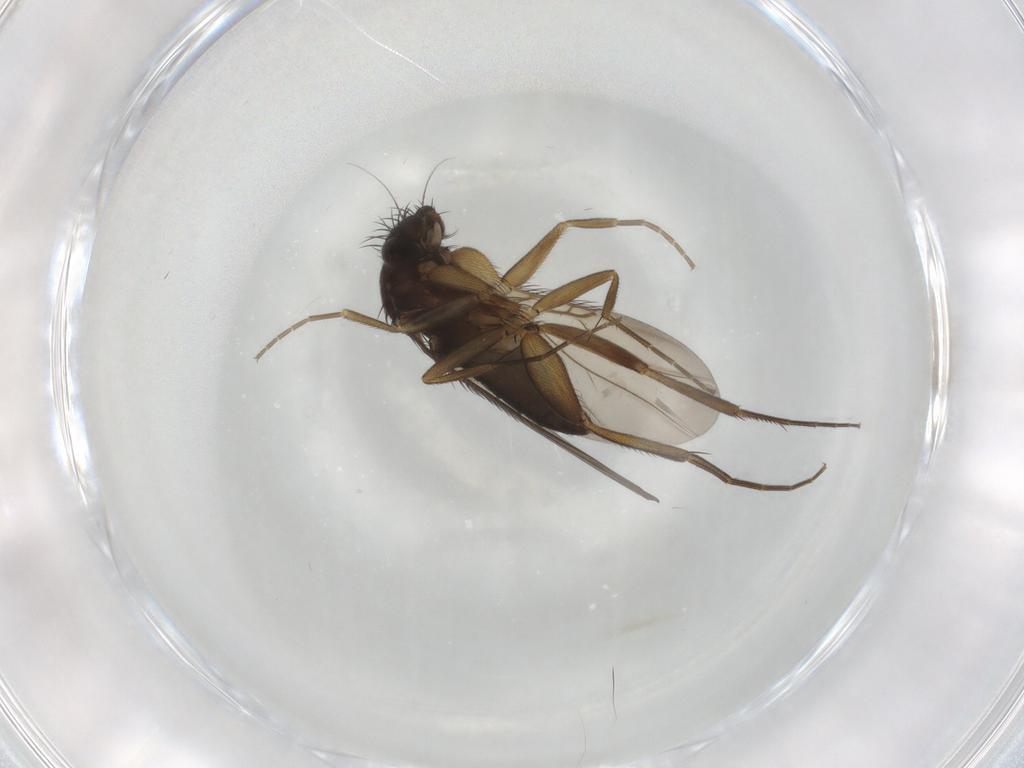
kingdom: Animalia
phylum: Arthropoda
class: Insecta
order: Diptera
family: Phoridae
